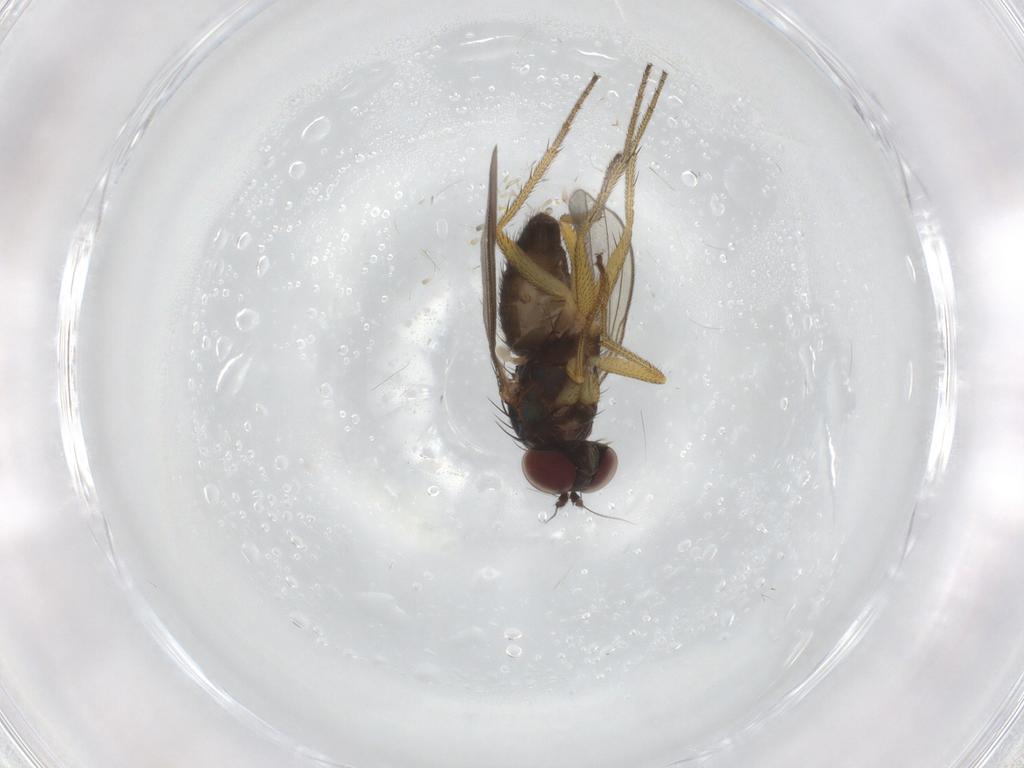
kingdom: Animalia
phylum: Arthropoda
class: Insecta
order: Diptera
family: Dolichopodidae
